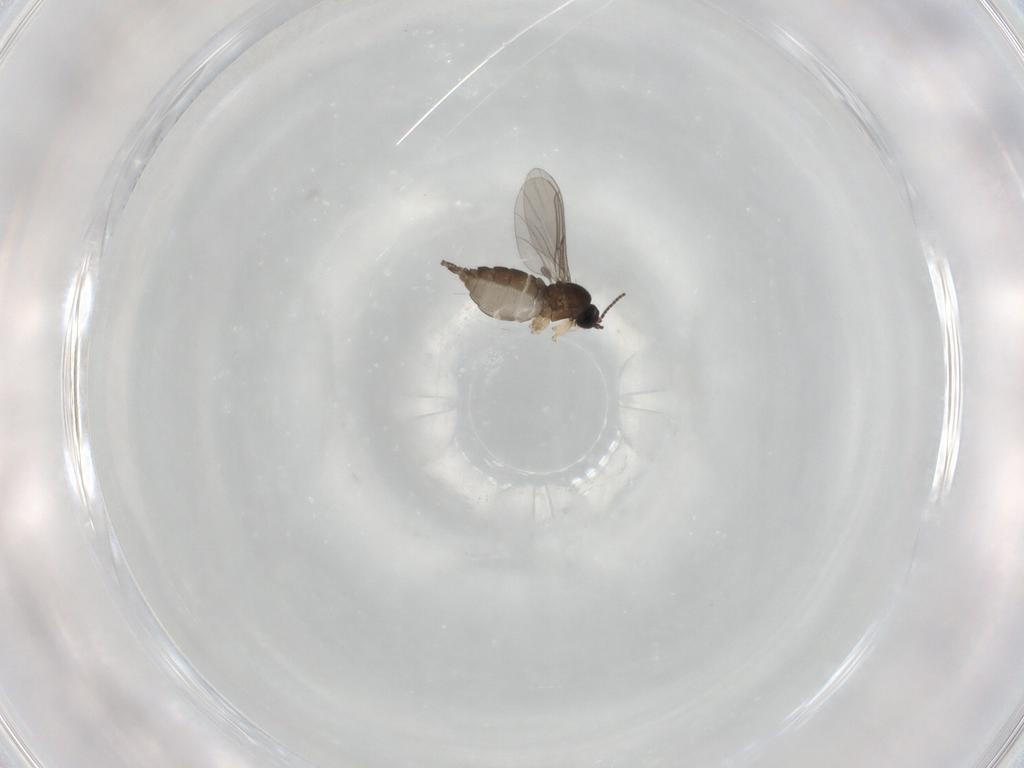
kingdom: Animalia
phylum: Arthropoda
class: Insecta
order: Diptera
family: Sciaridae
